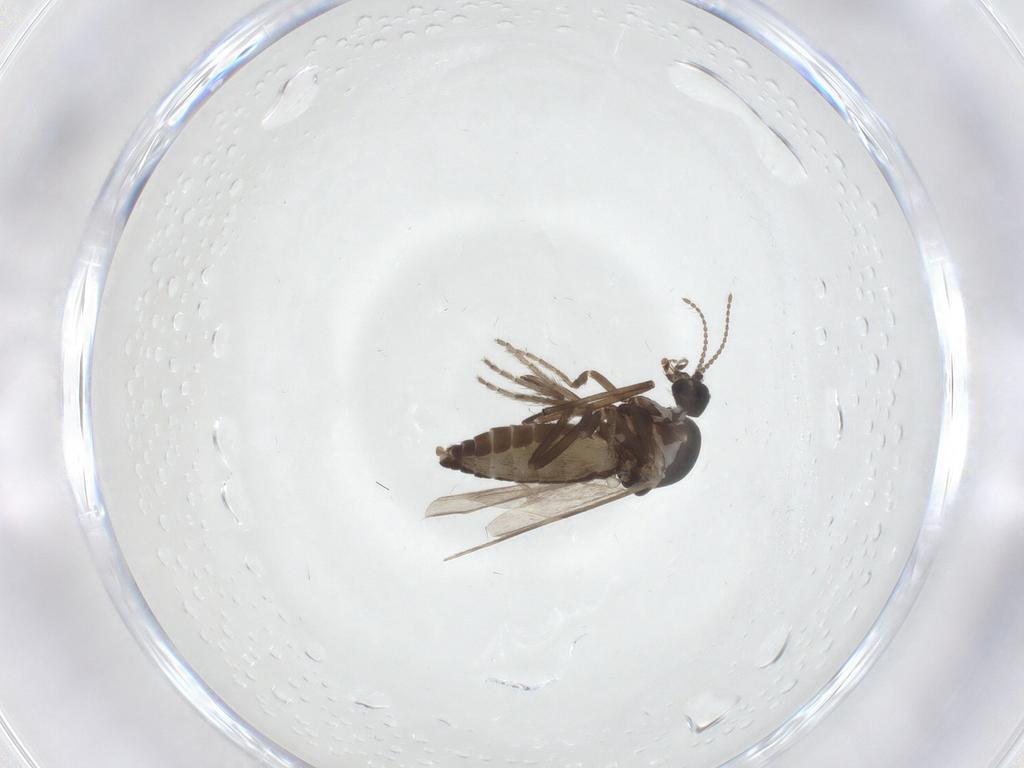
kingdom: Animalia
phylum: Arthropoda
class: Insecta
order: Diptera
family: Ceratopogonidae
